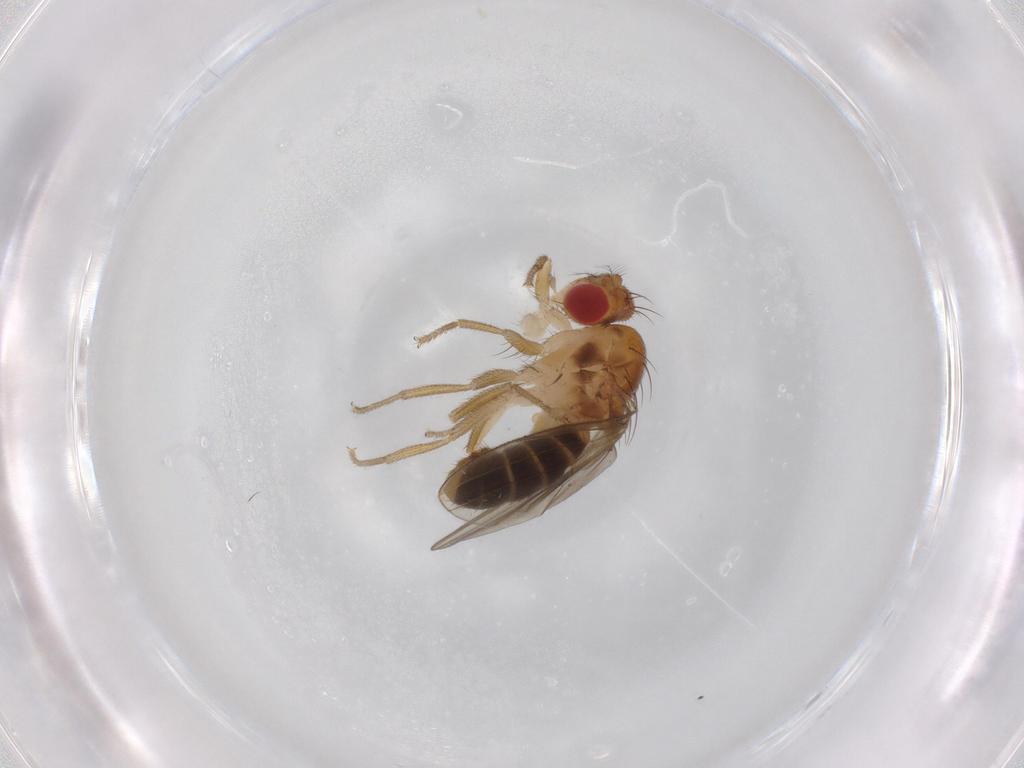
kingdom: Animalia
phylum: Arthropoda
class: Insecta
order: Diptera
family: Drosophilidae
